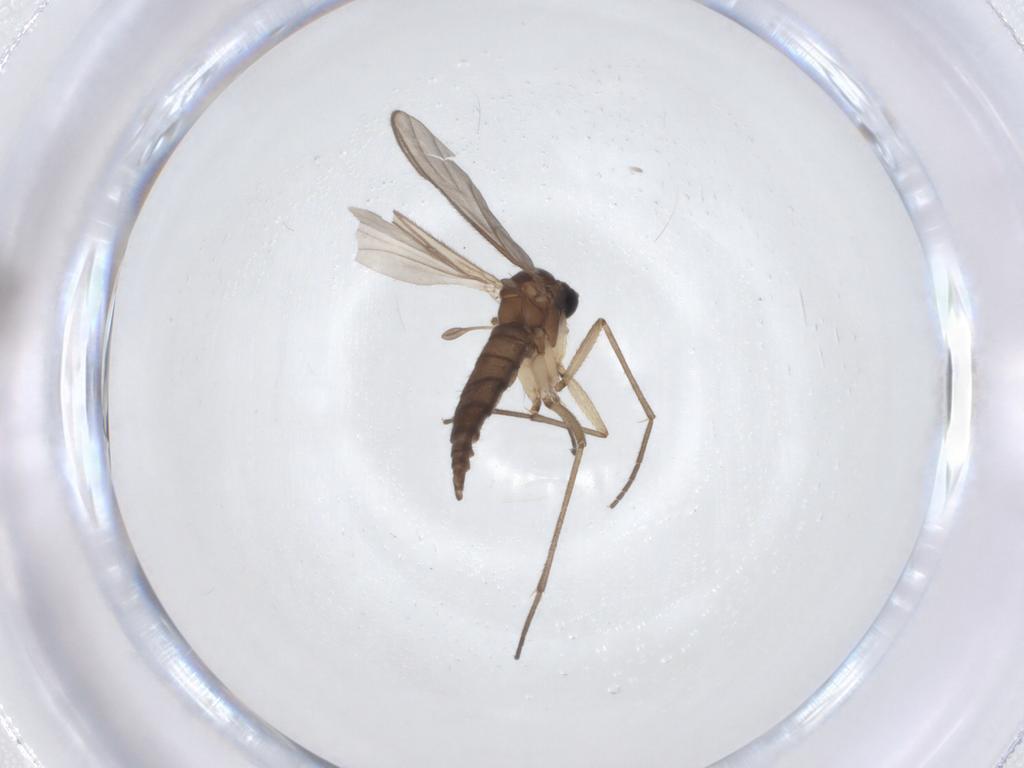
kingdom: Animalia
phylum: Arthropoda
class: Insecta
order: Diptera
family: Sciaridae
